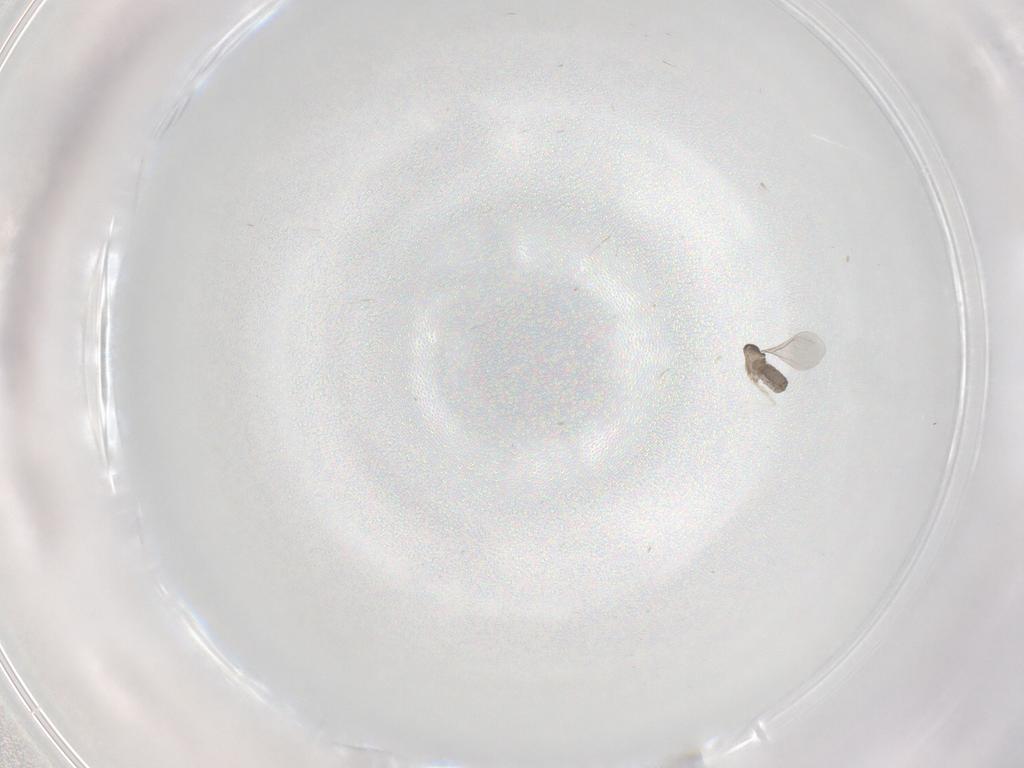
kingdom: Animalia
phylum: Arthropoda
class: Insecta
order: Diptera
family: Cecidomyiidae
